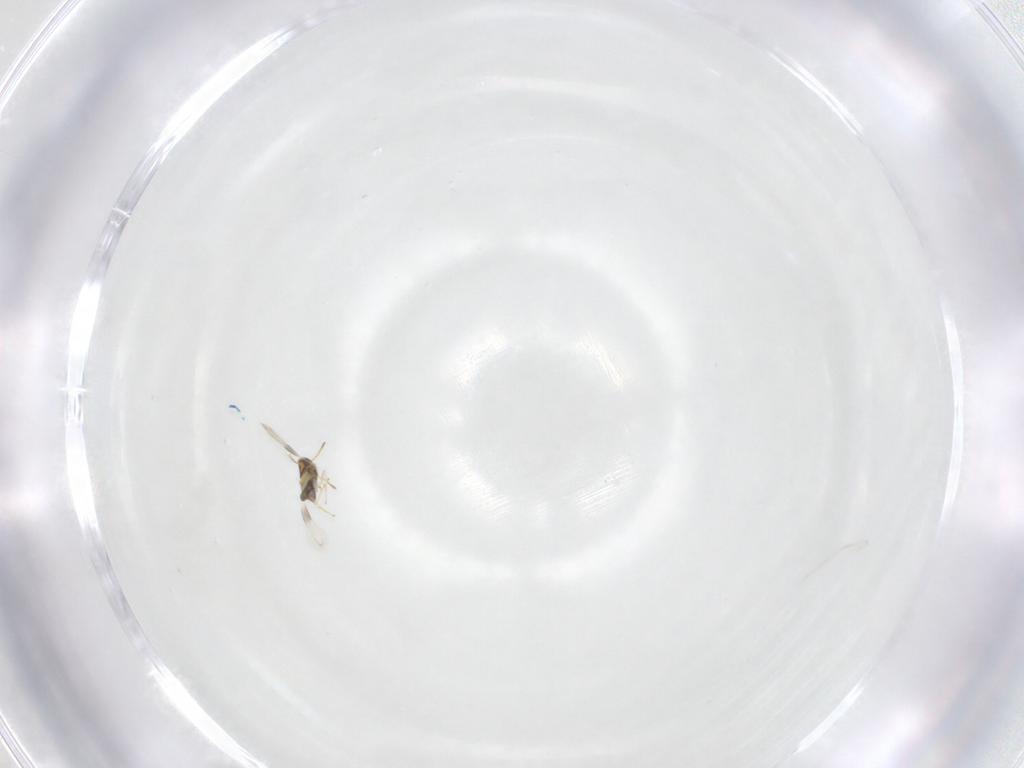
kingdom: Animalia
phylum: Arthropoda
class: Insecta
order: Hymenoptera
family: Aphelinidae
